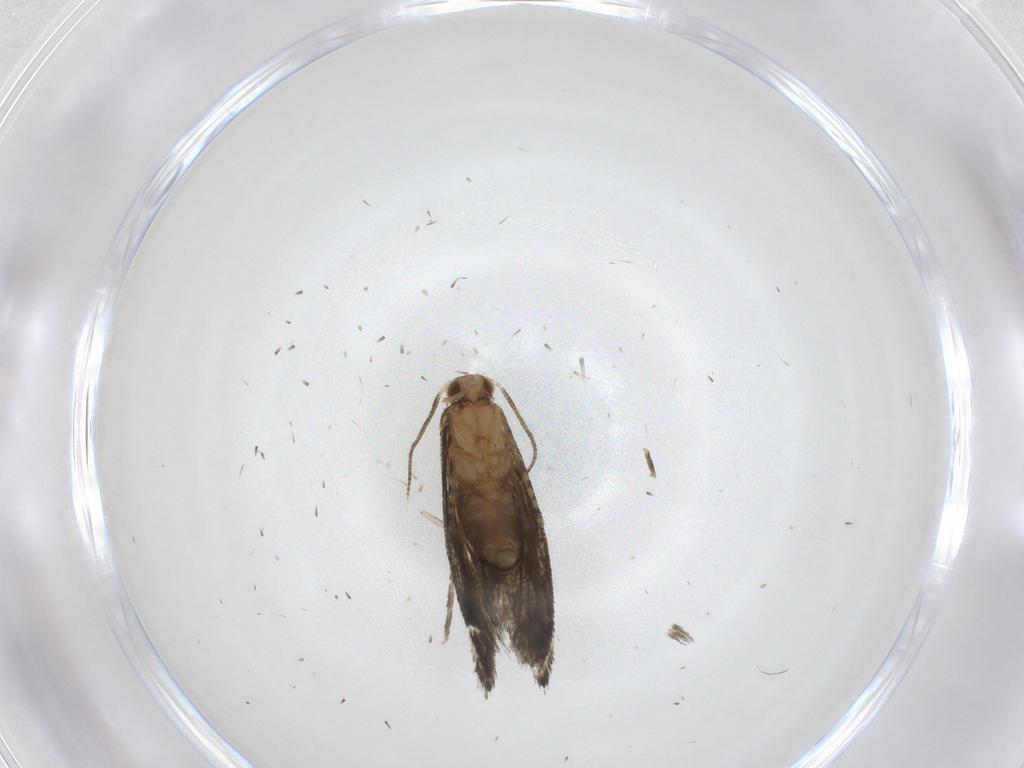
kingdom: Animalia
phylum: Arthropoda
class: Insecta
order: Lepidoptera
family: Tineidae
